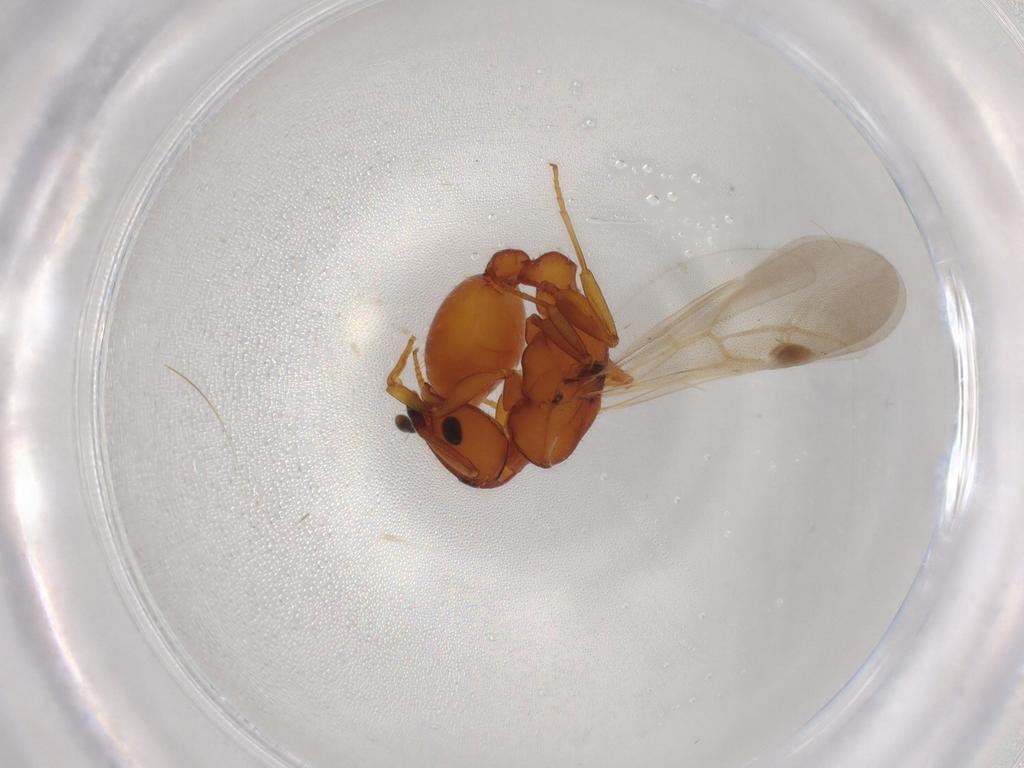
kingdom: Animalia
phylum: Arthropoda
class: Insecta
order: Hymenoptera
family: Formicidae
